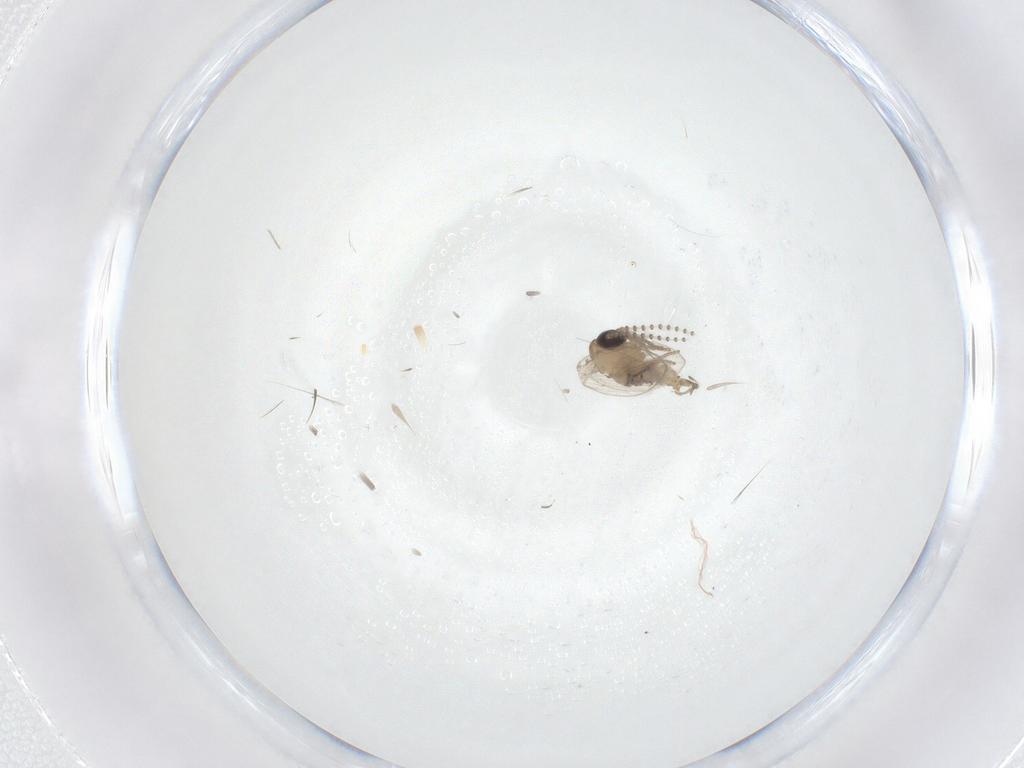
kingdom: Animalia
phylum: Arthropoda
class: Insecta
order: Diptera
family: Psychodidae
